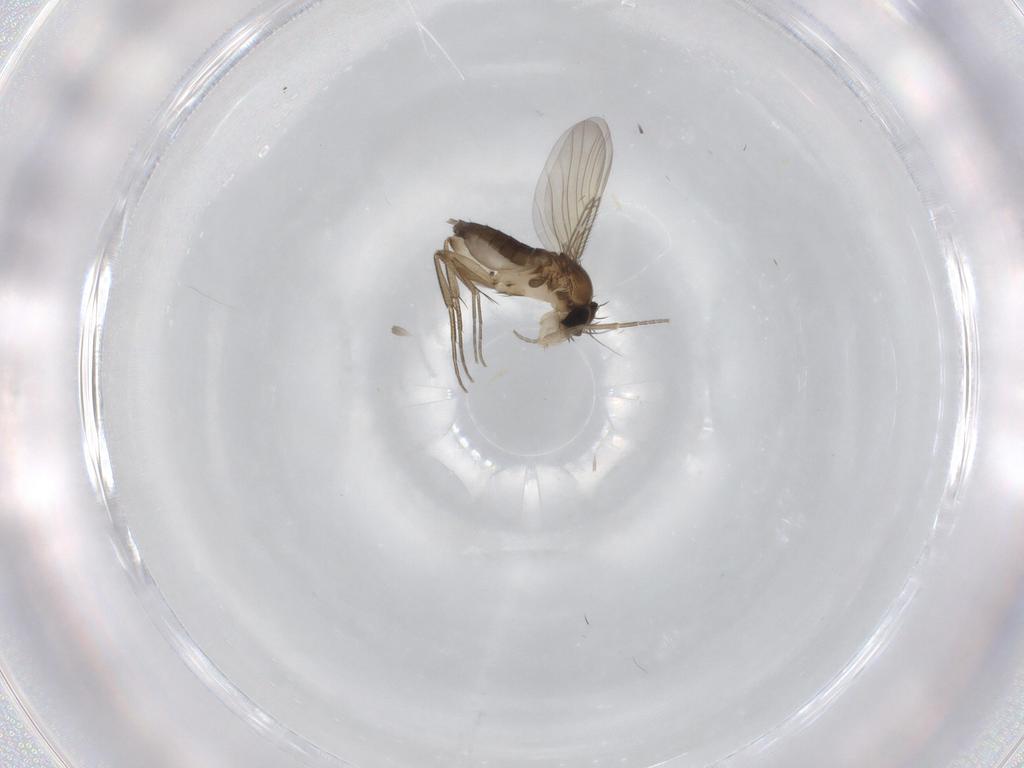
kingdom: Animalia
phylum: Arthropoda
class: Insecta
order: Diptera
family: Phoridae
